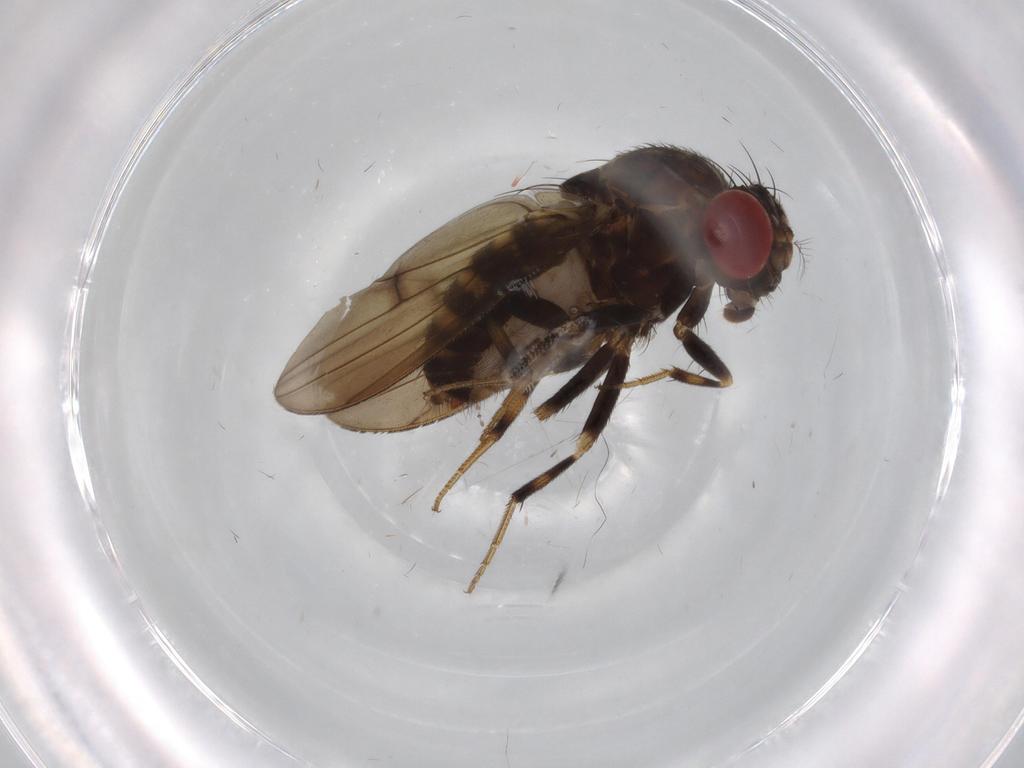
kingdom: Animalia
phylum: Arthropoda
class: Insecta
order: Diptera
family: Drosophilidae
